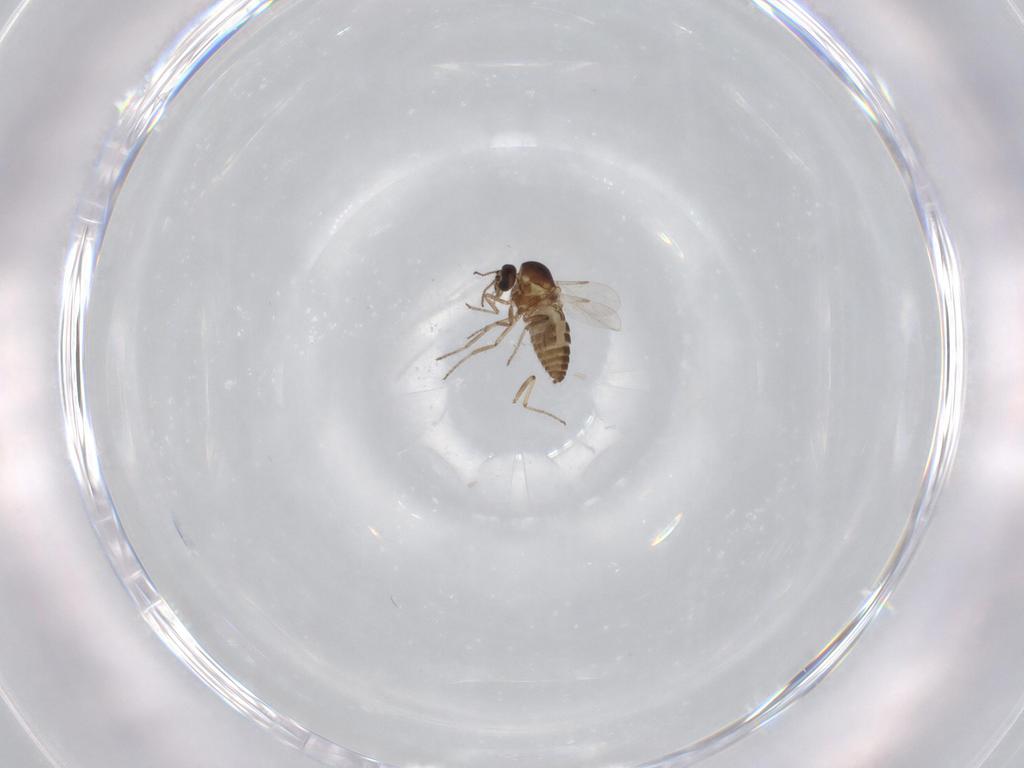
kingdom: Animalia
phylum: Arthropoda
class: Insecta
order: Diptera
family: Ceratopogonidae
